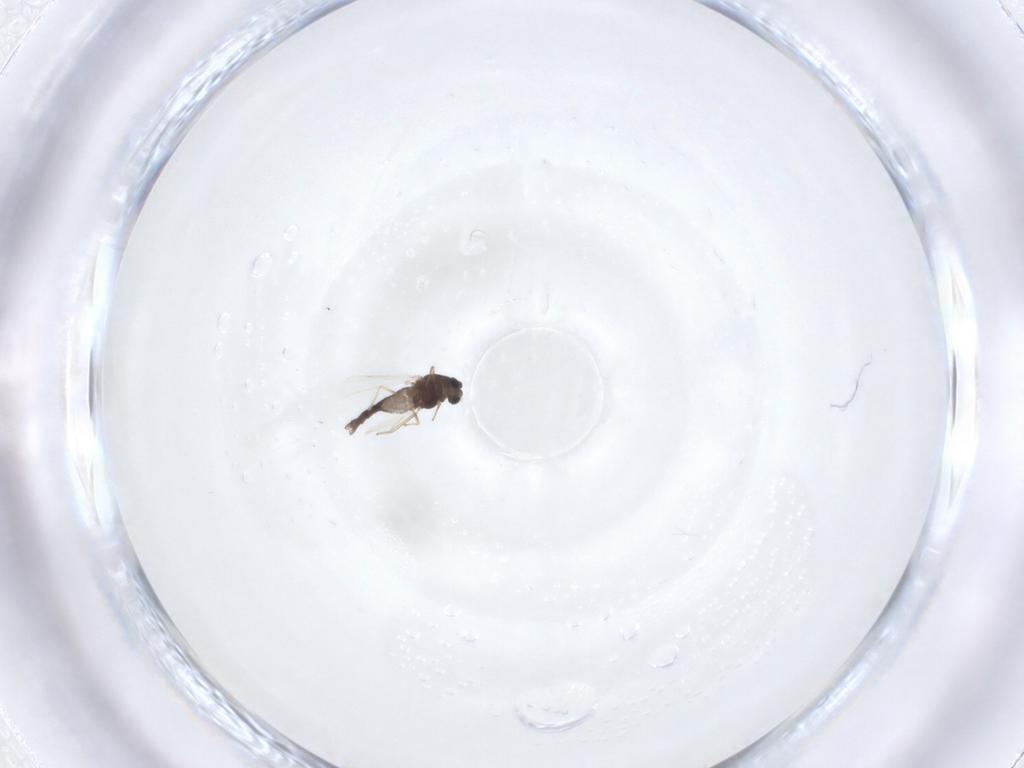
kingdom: Animalia
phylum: Arthropoda
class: Insecta
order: Diptera
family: Chironomidae
